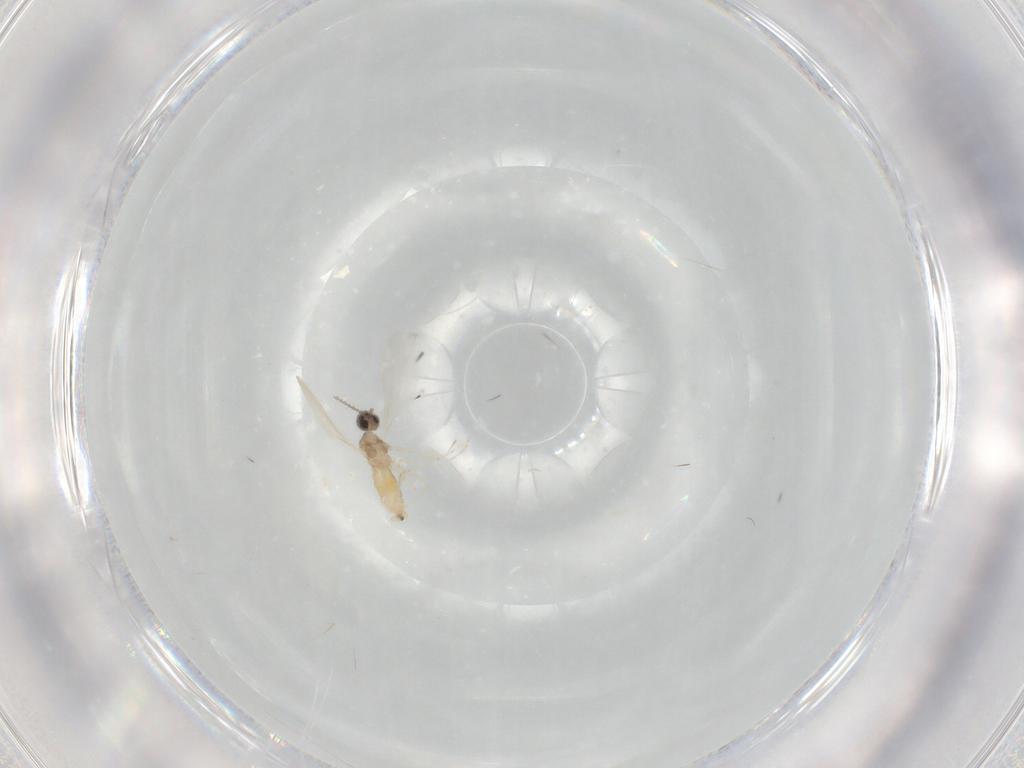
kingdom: Animalia
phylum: Arthropoda
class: Insecta
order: Diptera
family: Cecidomyiidae
